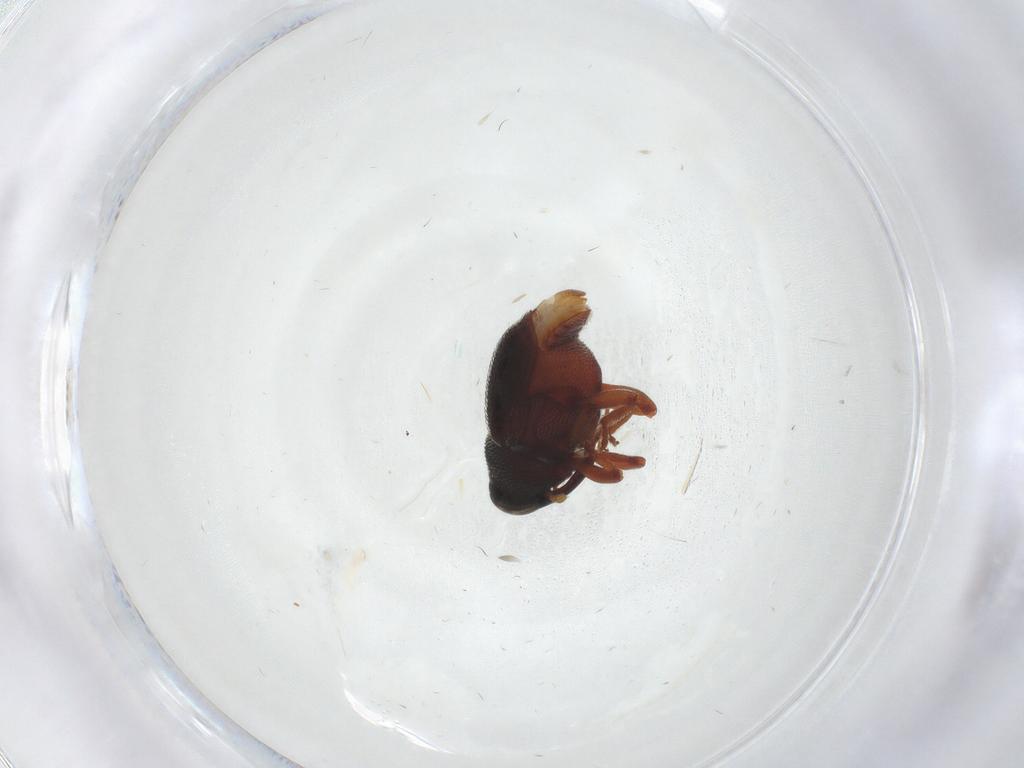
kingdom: Animalia
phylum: Arthropoda
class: Insecta
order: Coleoptera
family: Curculionidae
